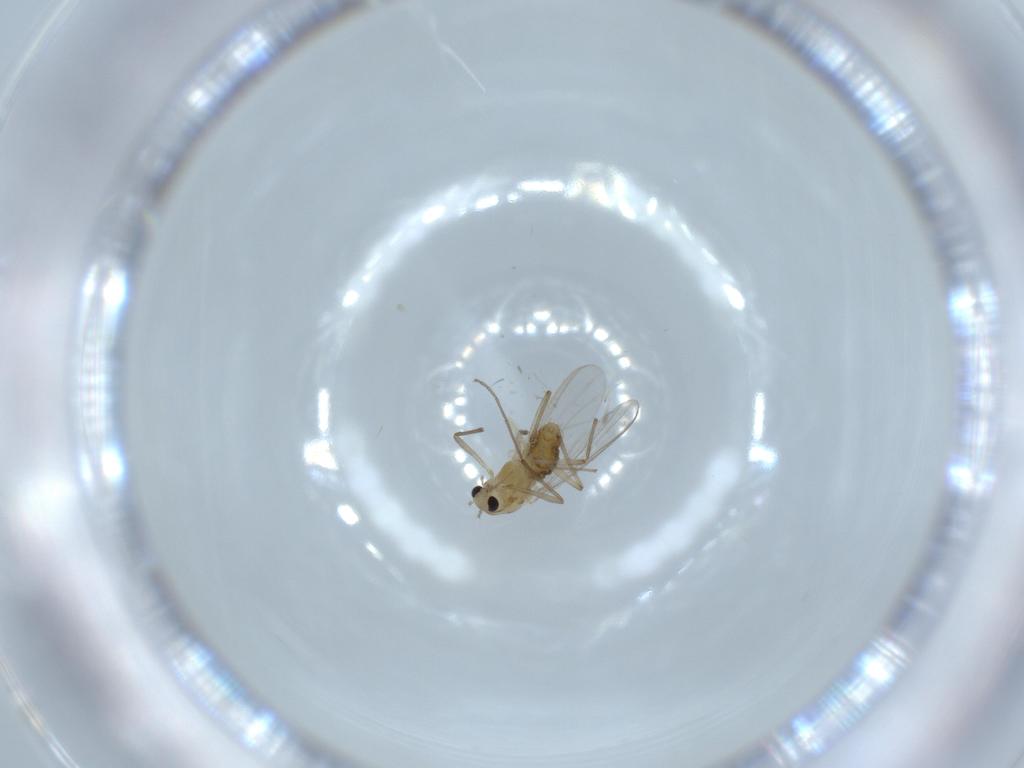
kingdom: Animalia
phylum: Arthropoda
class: Insecta
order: Diptera
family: Chironomidae
